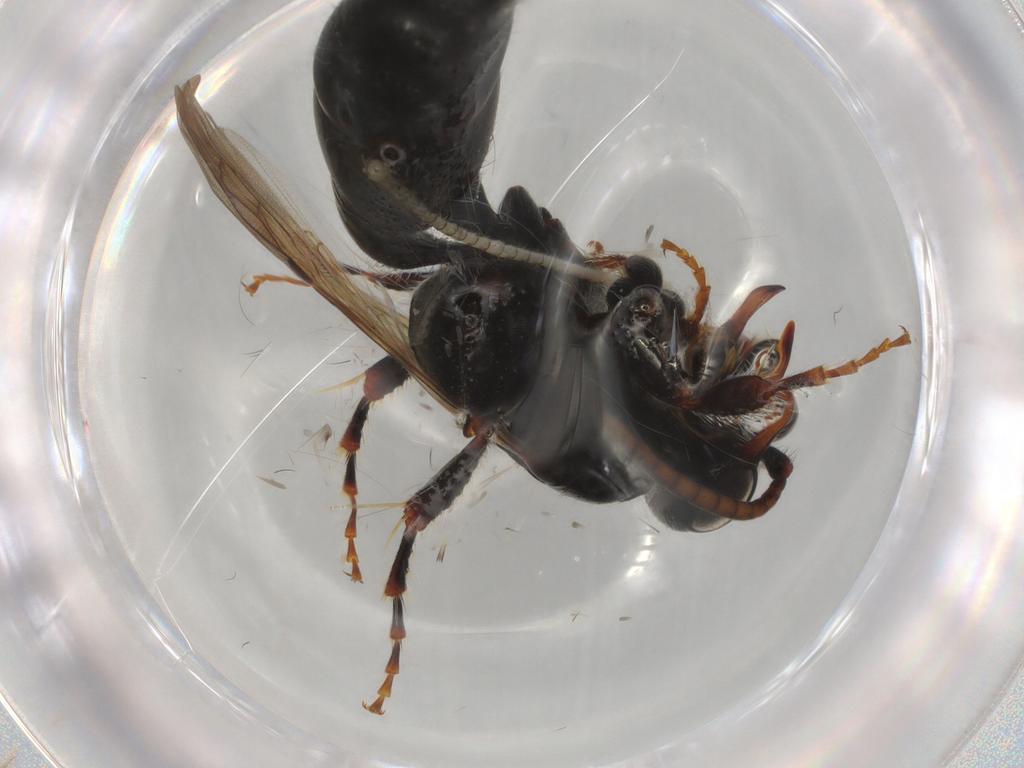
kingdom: Animalia
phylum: Arthropoda
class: Insecta
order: Hymenoptera
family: Tiphiidae
